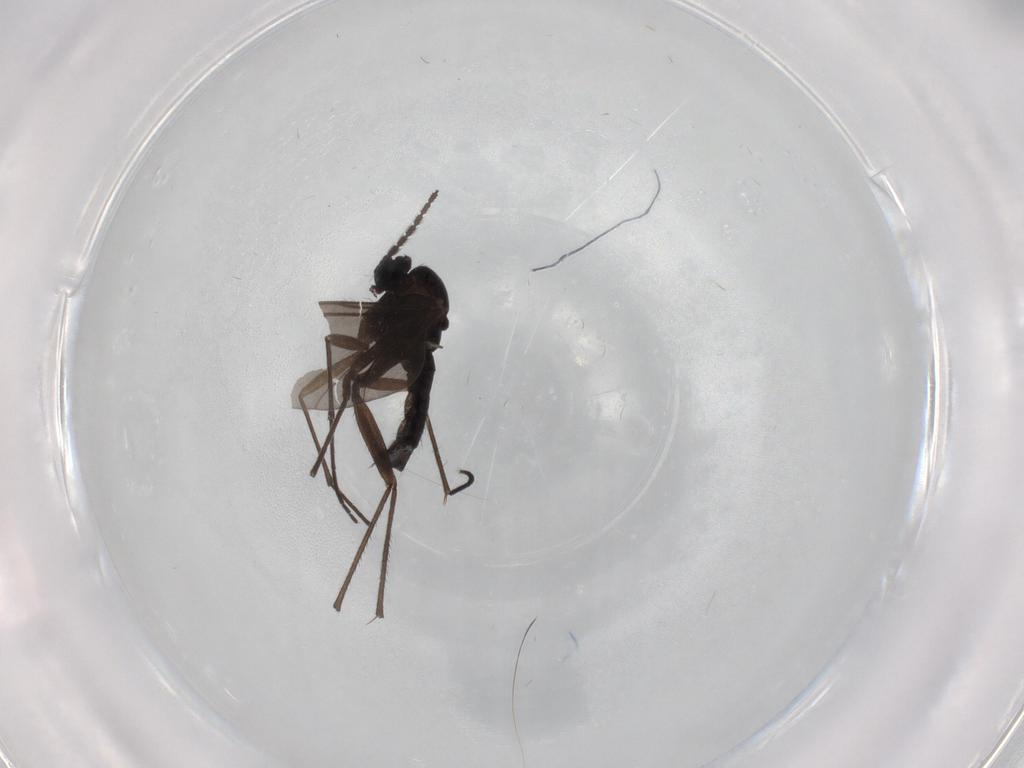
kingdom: Animalia
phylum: Arthropoda
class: Insecta
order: Diptera
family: Sciaridae
